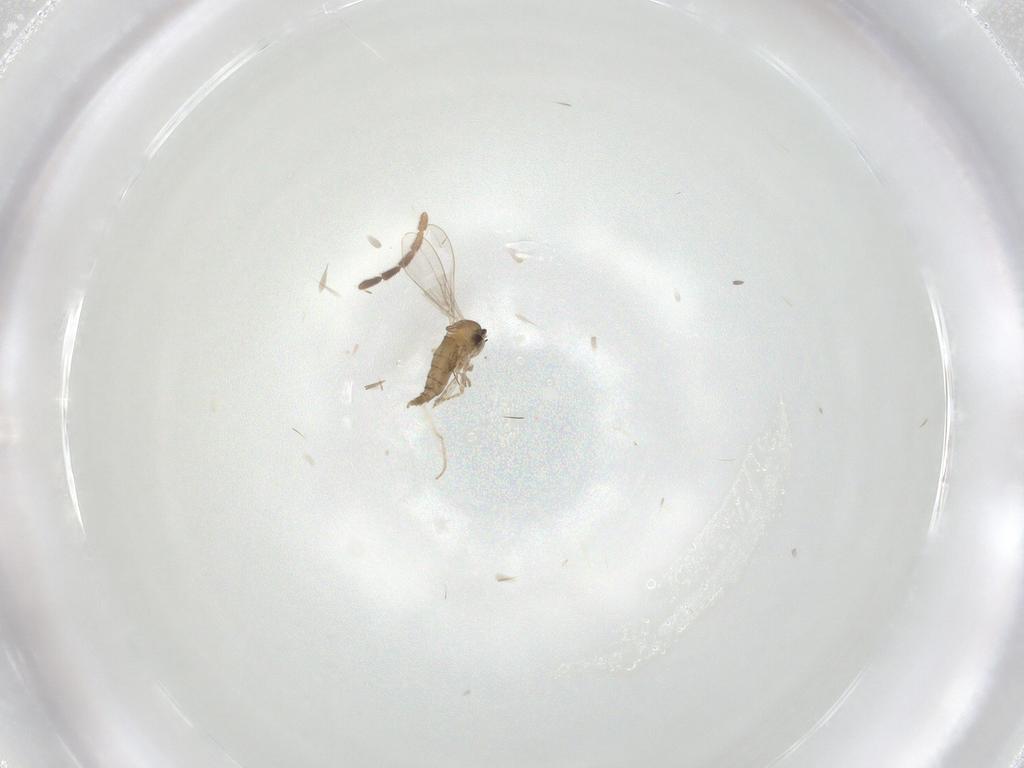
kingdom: Animalia
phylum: Arthropoda
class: Insecta
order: Diptera
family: Cecidomyiidae
